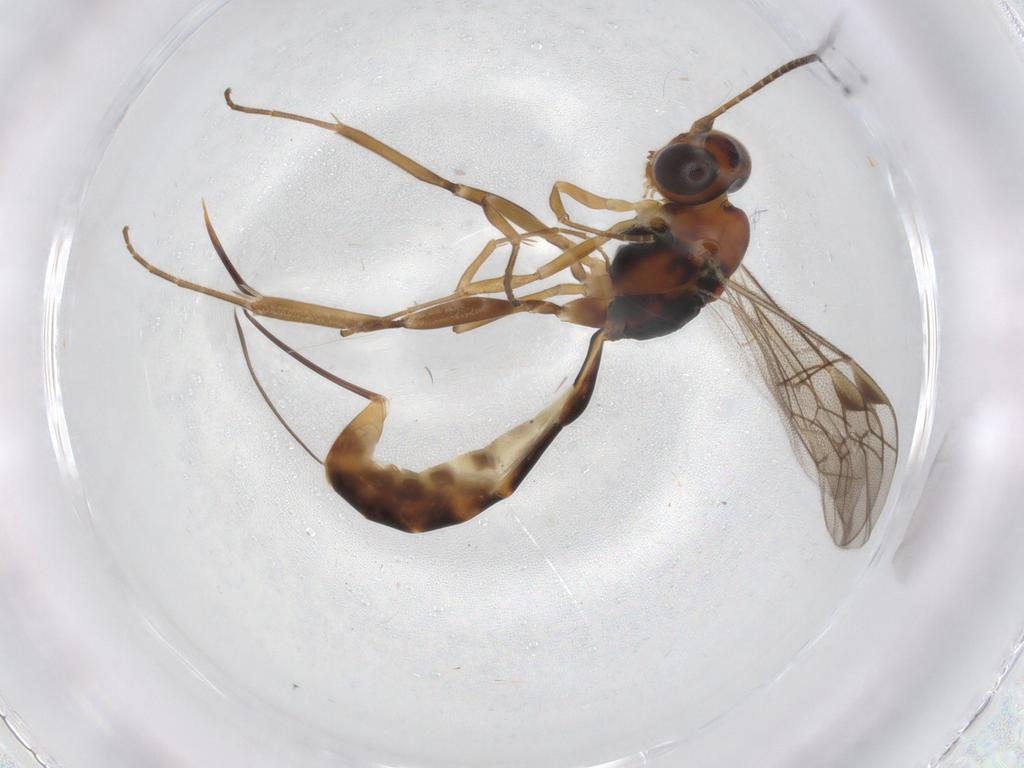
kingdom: Animalia
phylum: Arthropoda
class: Insecta
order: Hymenoptera
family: Ichneumonidae
